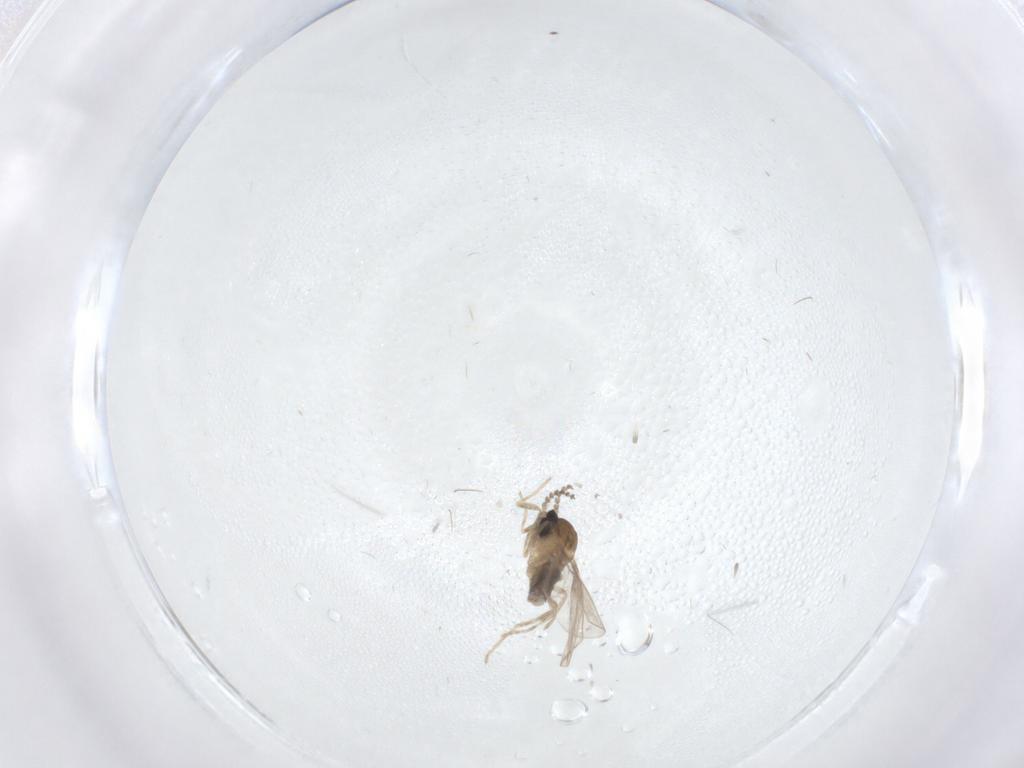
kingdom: Animalia
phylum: Arthropoda
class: Insecta
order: Diptera
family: Cecidomyiidae
